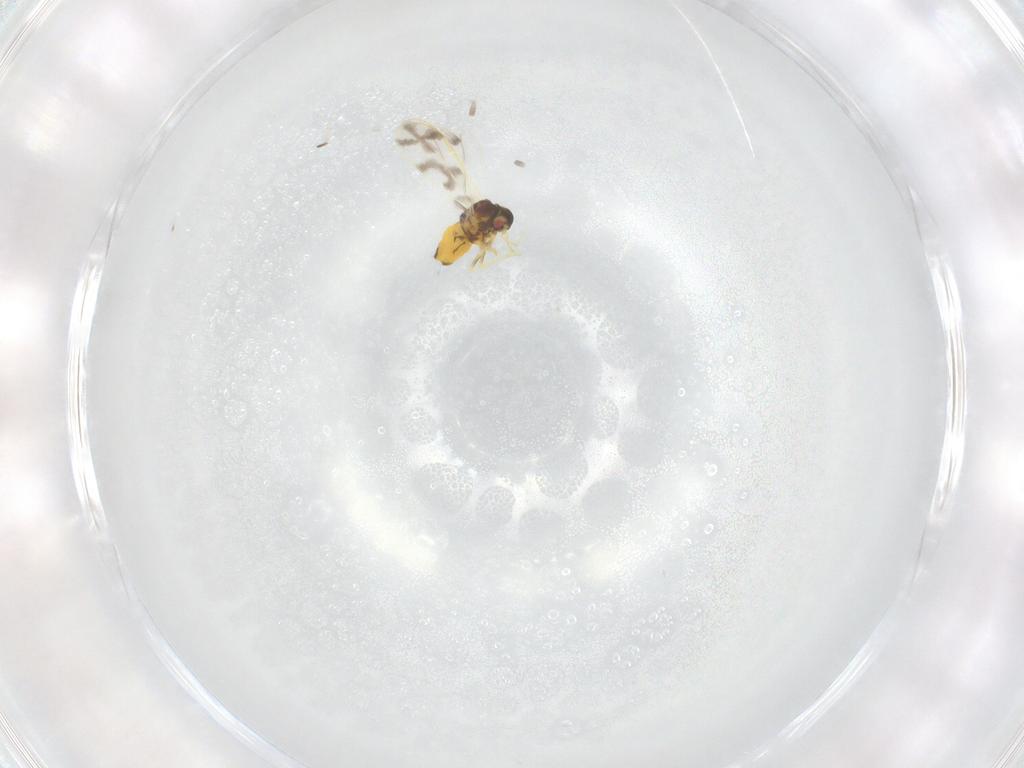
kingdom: Animalia
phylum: Arthropoda
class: Insecta
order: Hemiptera
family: Aleyrodidae
